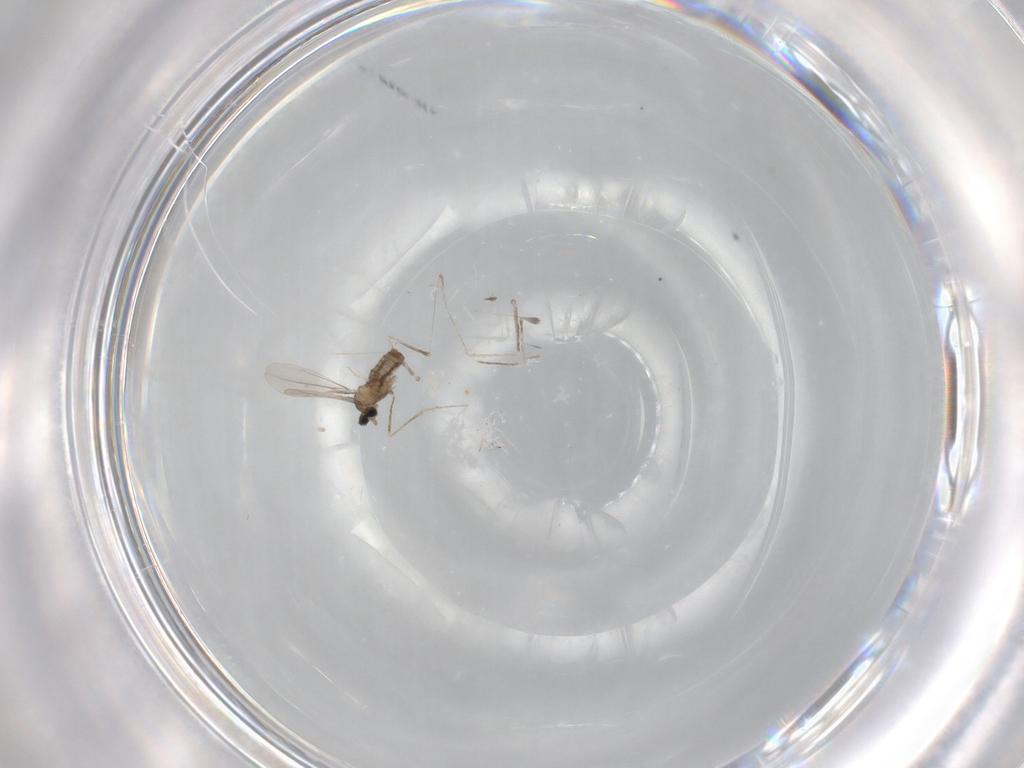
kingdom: Animalia
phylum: Arthropoda
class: Insecta
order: Diptera
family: Cecidomyiidae
